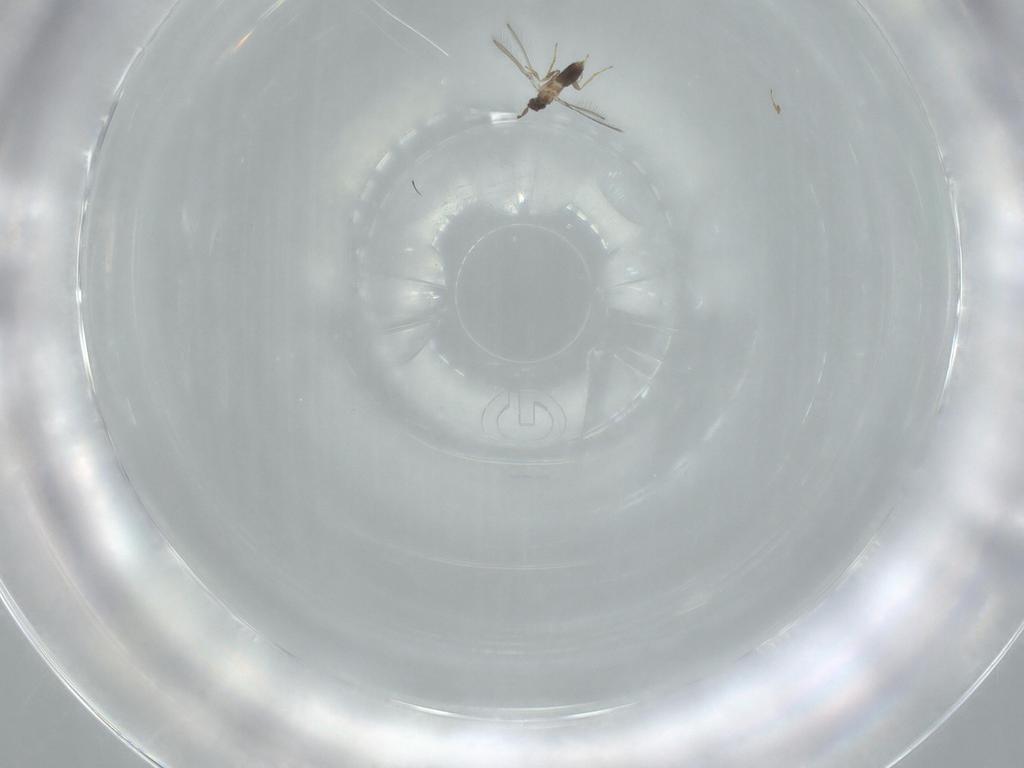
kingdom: Animalia
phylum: Arthropoda
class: Insecta
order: Hymenoptera
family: Mymaridae
